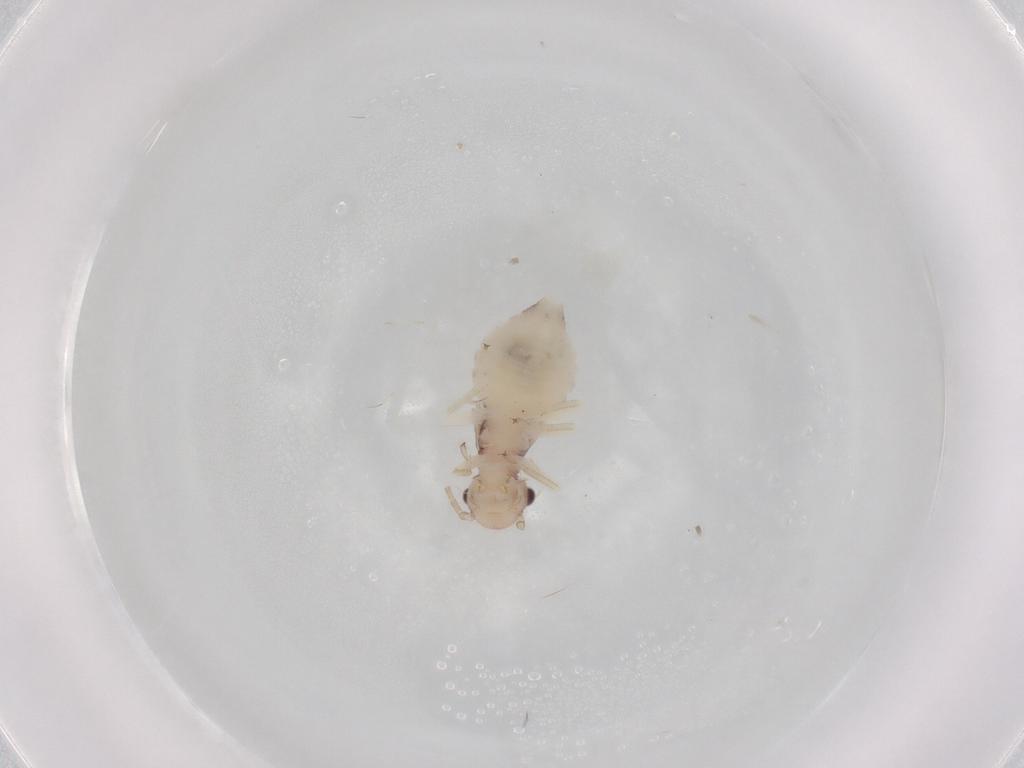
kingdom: Animalia
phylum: Arthropoda
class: Insecta
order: Psocodea
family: Amphipsocidae
